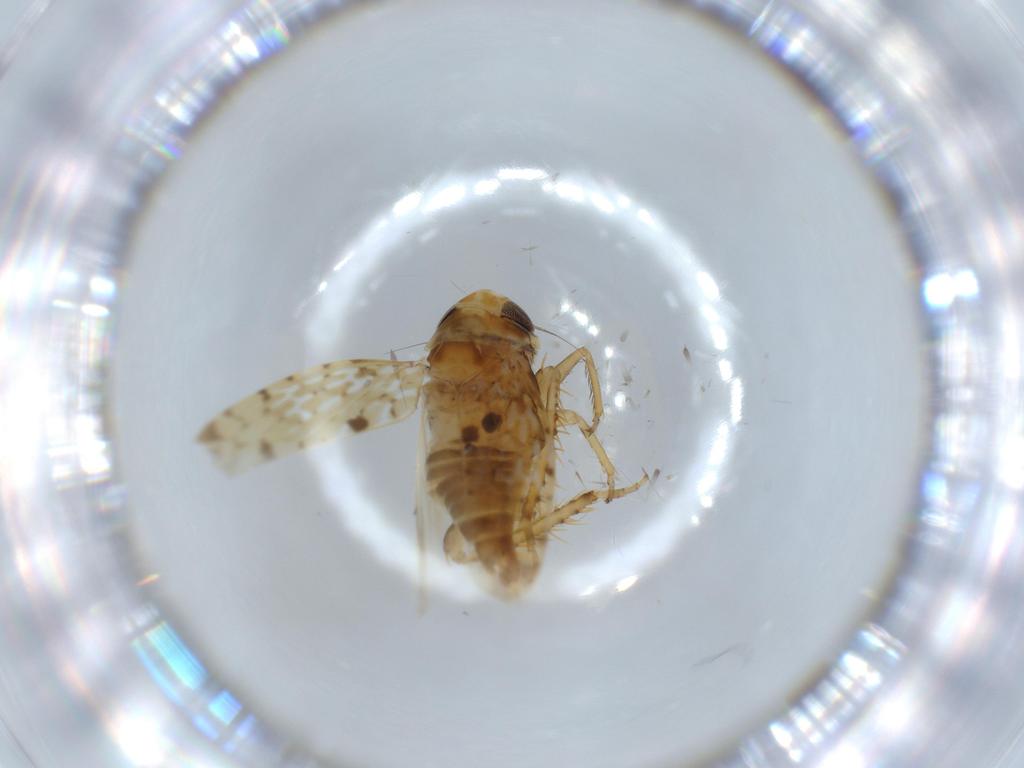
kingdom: Animalia
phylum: Arthropoda
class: Insecta
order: Hemiptera
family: Cicadellidae
